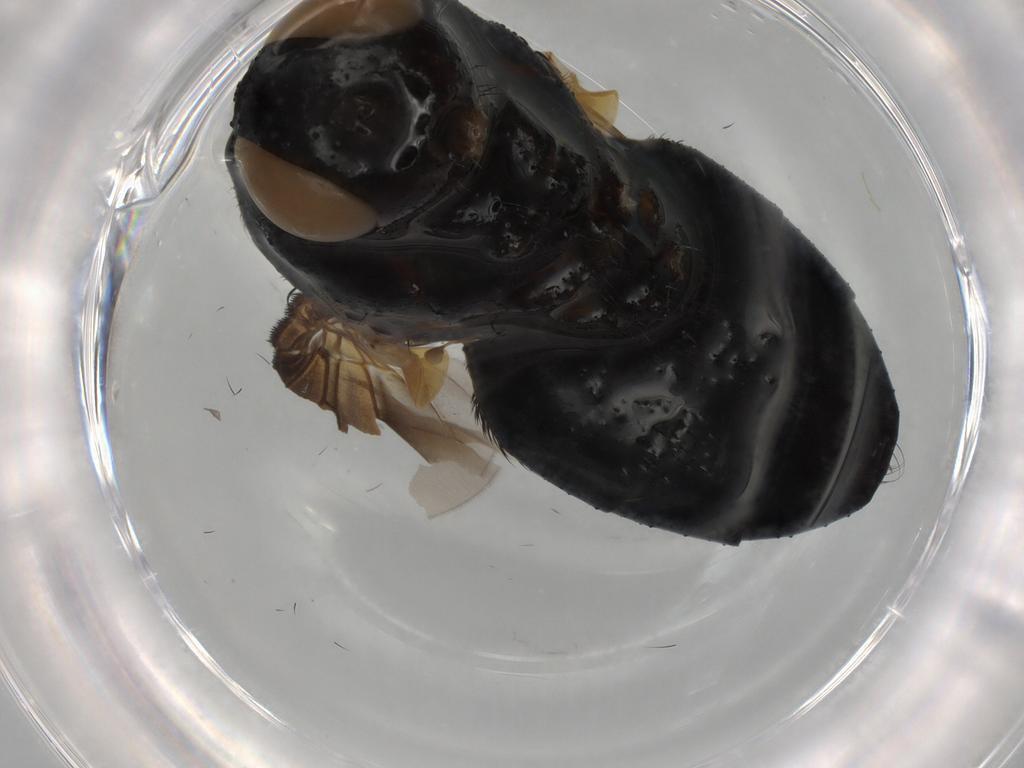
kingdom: Animalia
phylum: Arthropoda
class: Insecta
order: Diptera
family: Tachinidae
